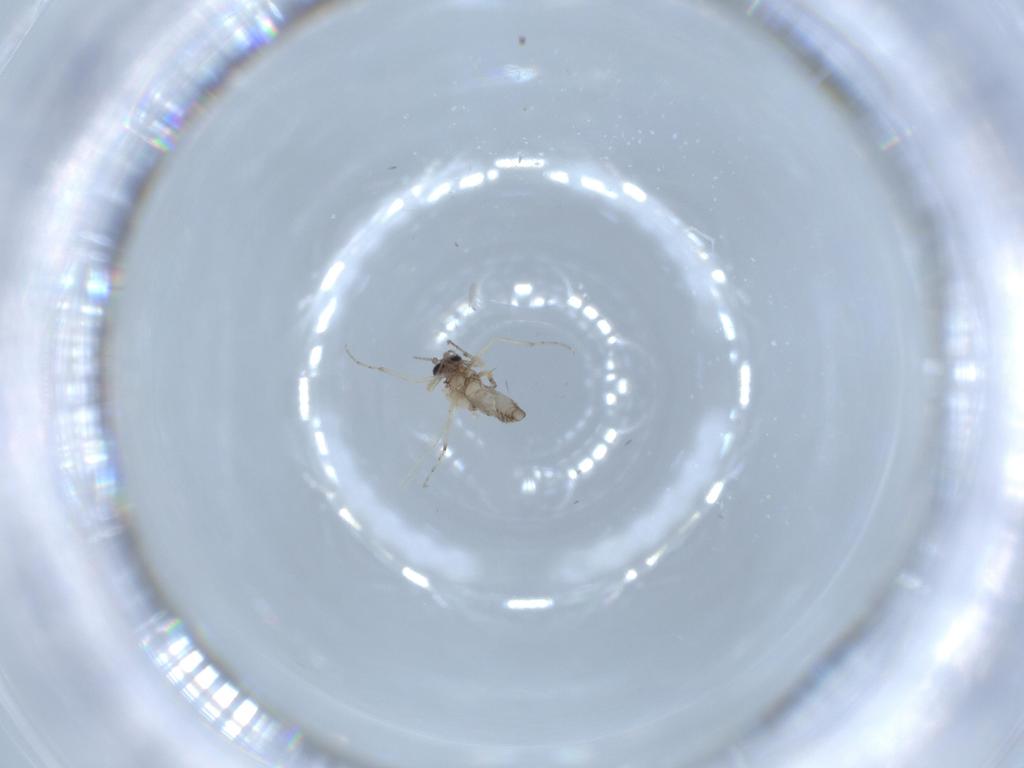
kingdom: Animalia
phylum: Arthropoda
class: Insecta
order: Diptera
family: Ceratopogonidae
